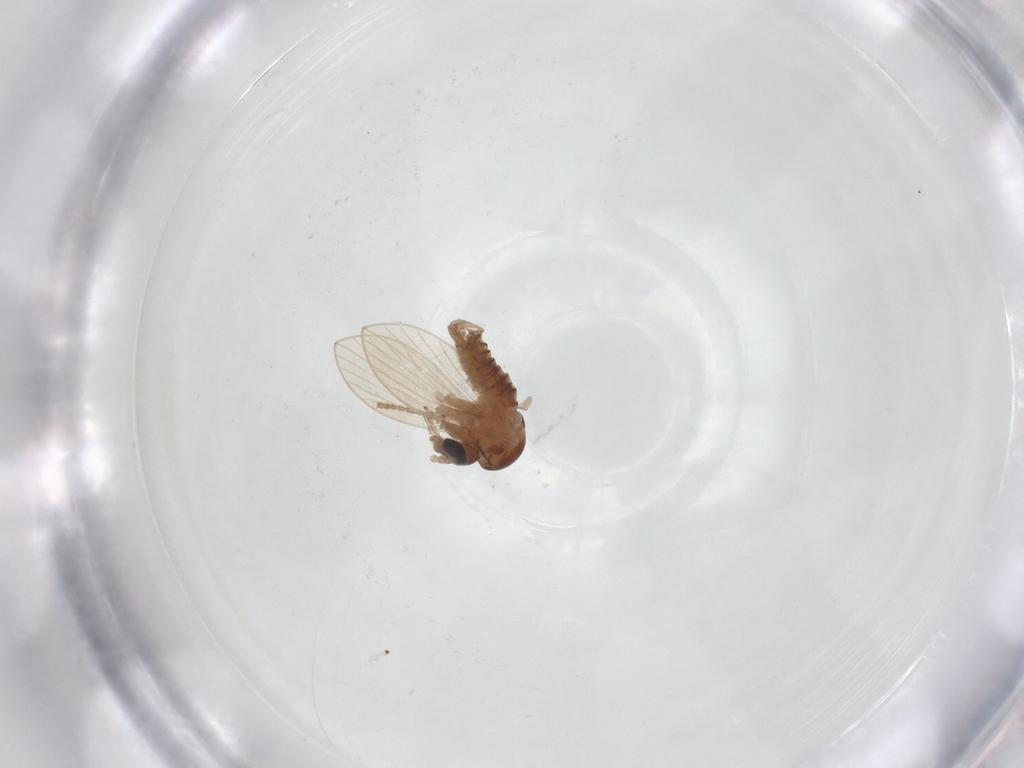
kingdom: Animalia
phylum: Arthropoda
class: Insecta
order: Diptera
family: Psychodidae
